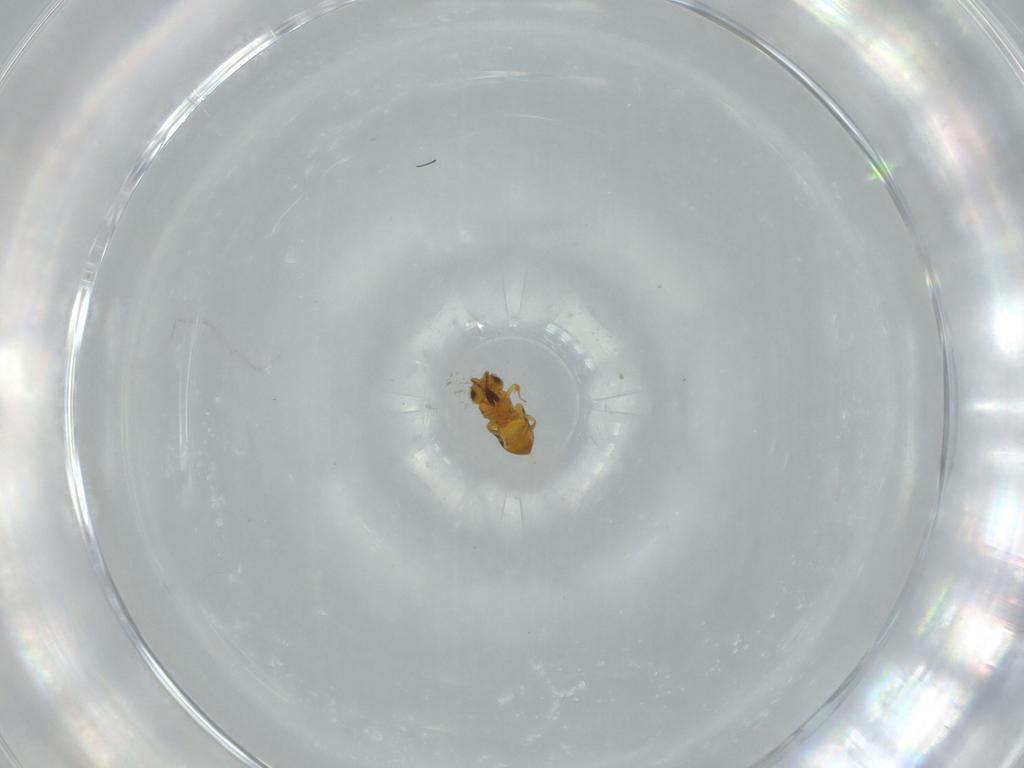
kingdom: Animalia
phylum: Arthropoda
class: Insecta
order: Hymenoptera
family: Scelionidae
